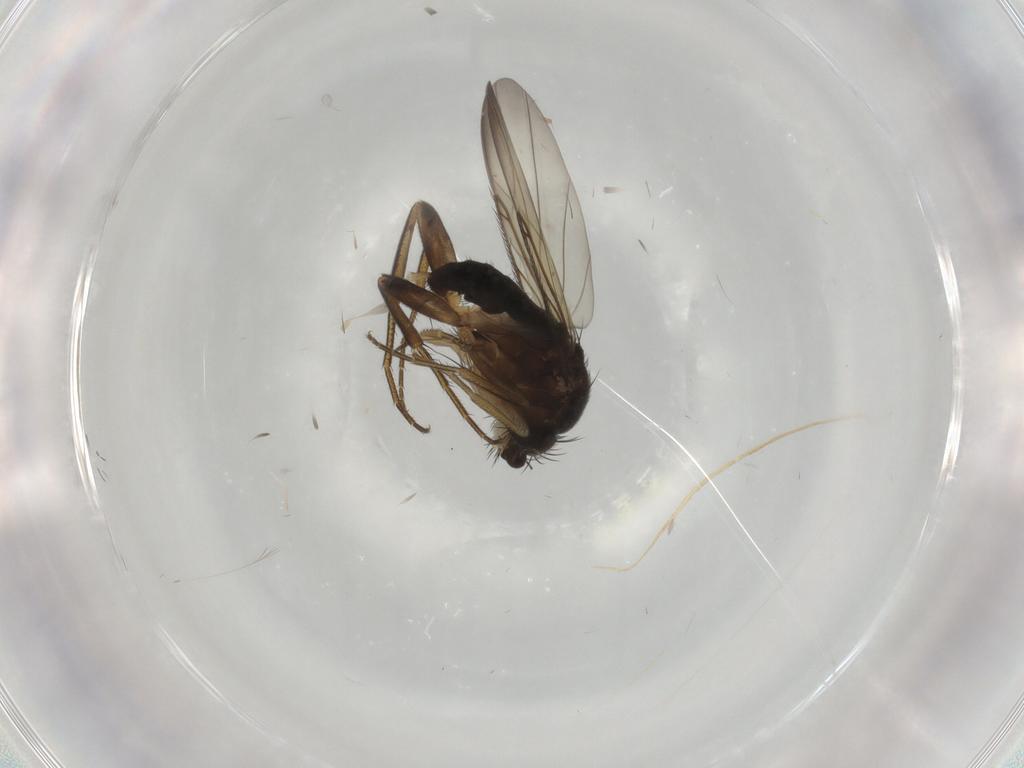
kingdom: Animalia
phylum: Arthropoda
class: Insecta
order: Diptera
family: Phoridae
